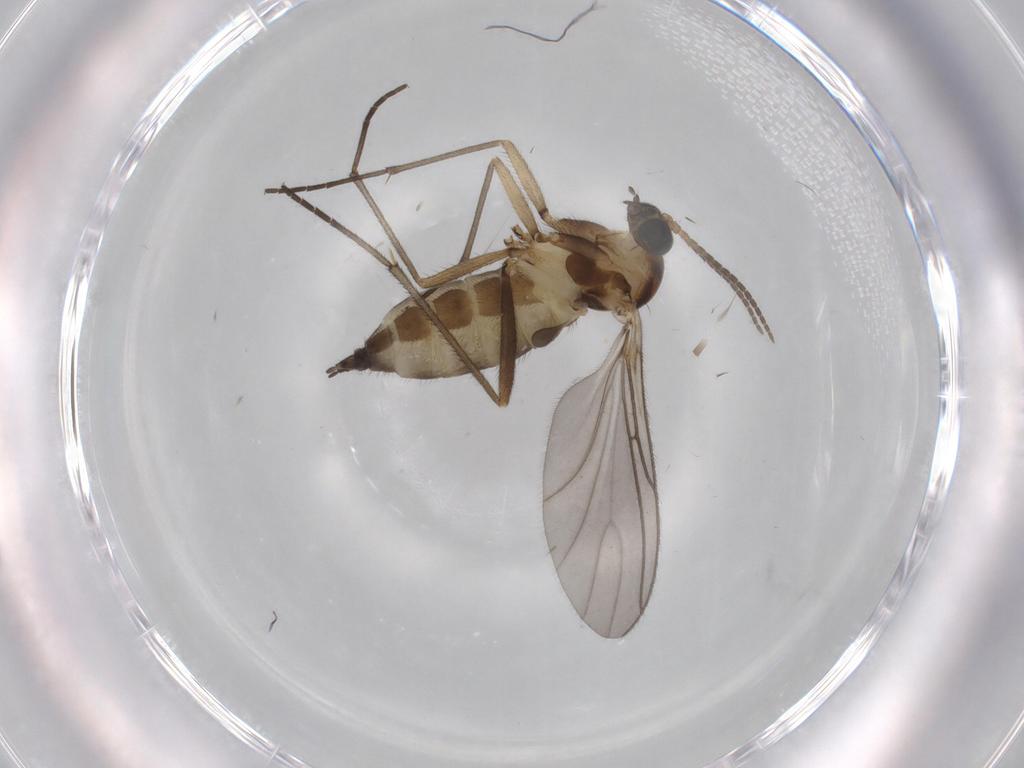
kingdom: Animalia
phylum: Arthropoda
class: Insecta
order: Diptera
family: Sciaridae
